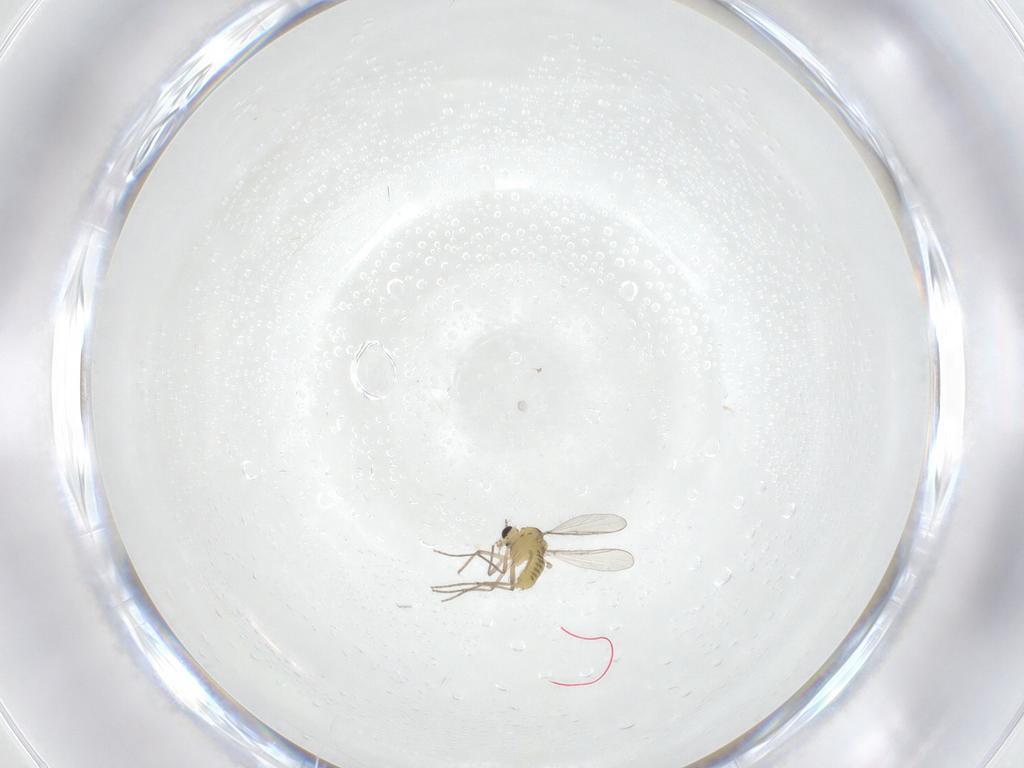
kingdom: Animalia
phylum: Arthropoda
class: Insecta
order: Diptera
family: Chironomidae
